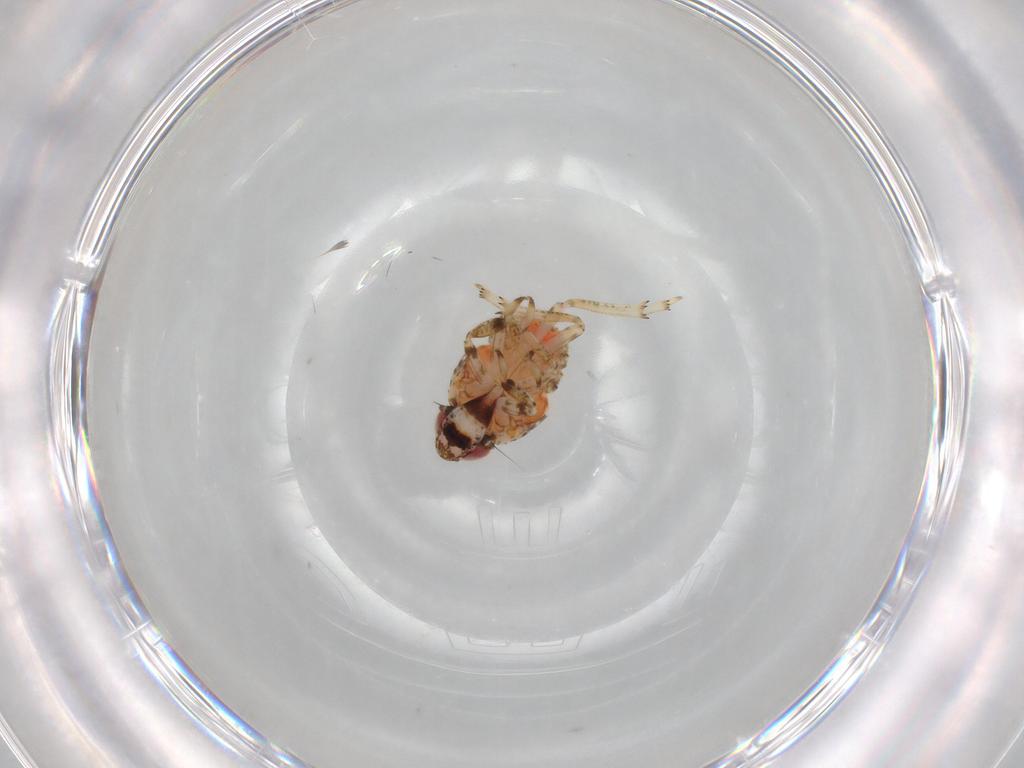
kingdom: Animalia
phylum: Arthropoda
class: Insecta
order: Hemiptera
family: Issidae
